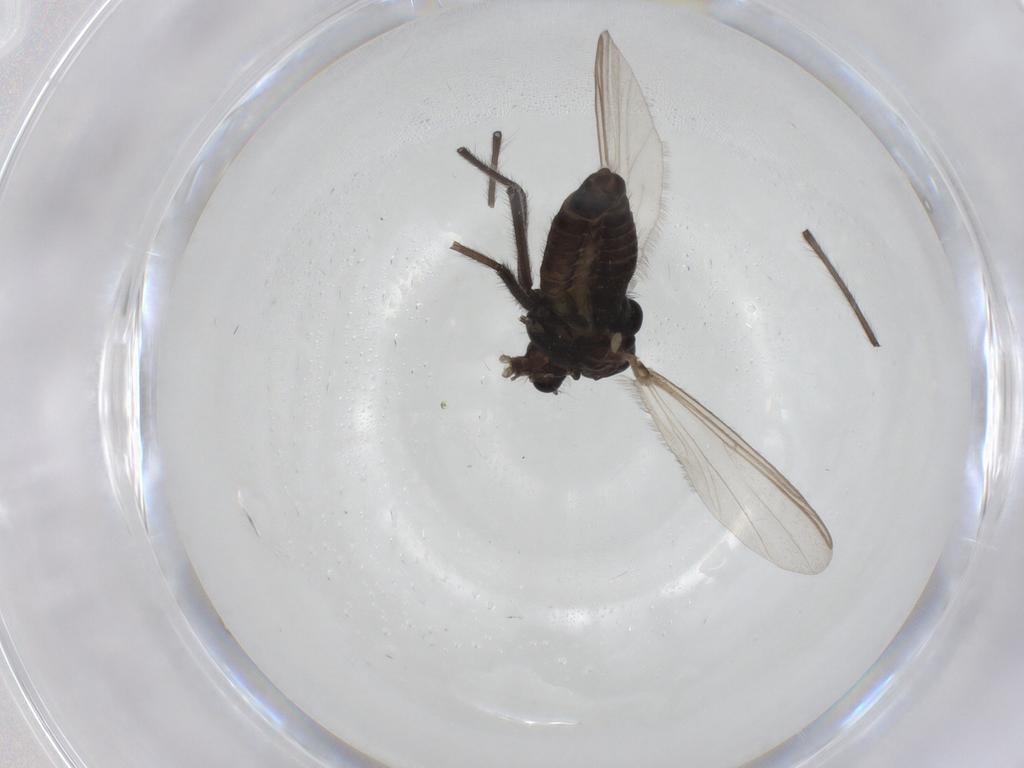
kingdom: Animalia
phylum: Arthropoda
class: Insecta
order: Diptera
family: Chironomidae
